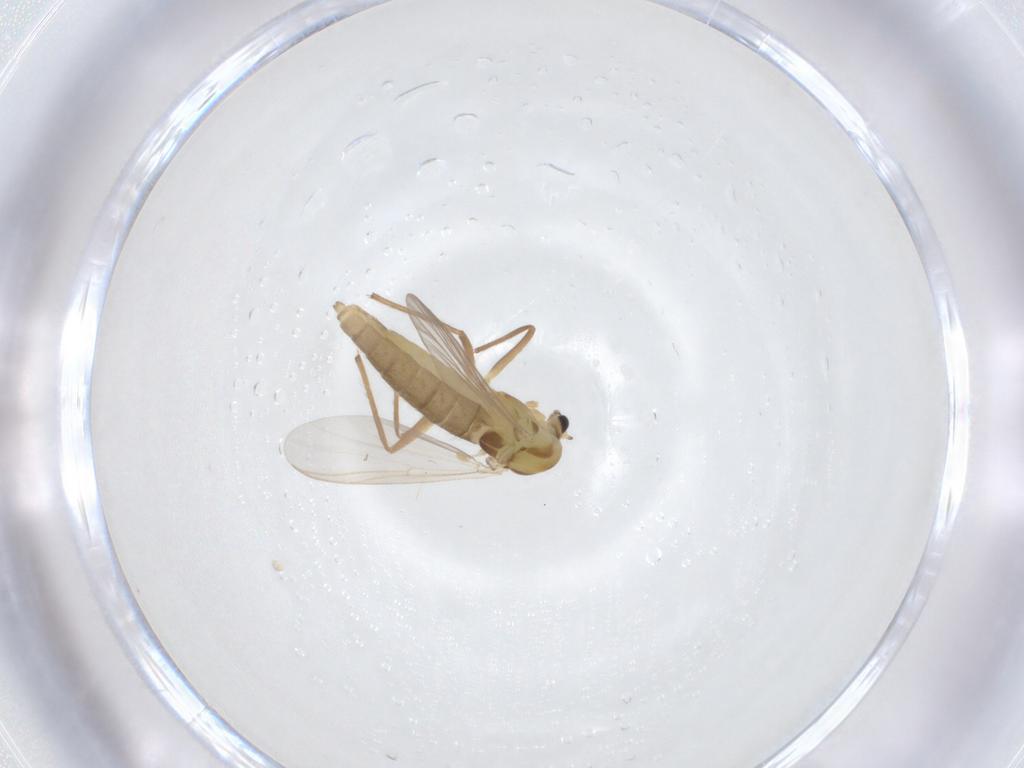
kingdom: Animalia
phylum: Arthropoda
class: Insecta
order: Diptera
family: Chironomidae
